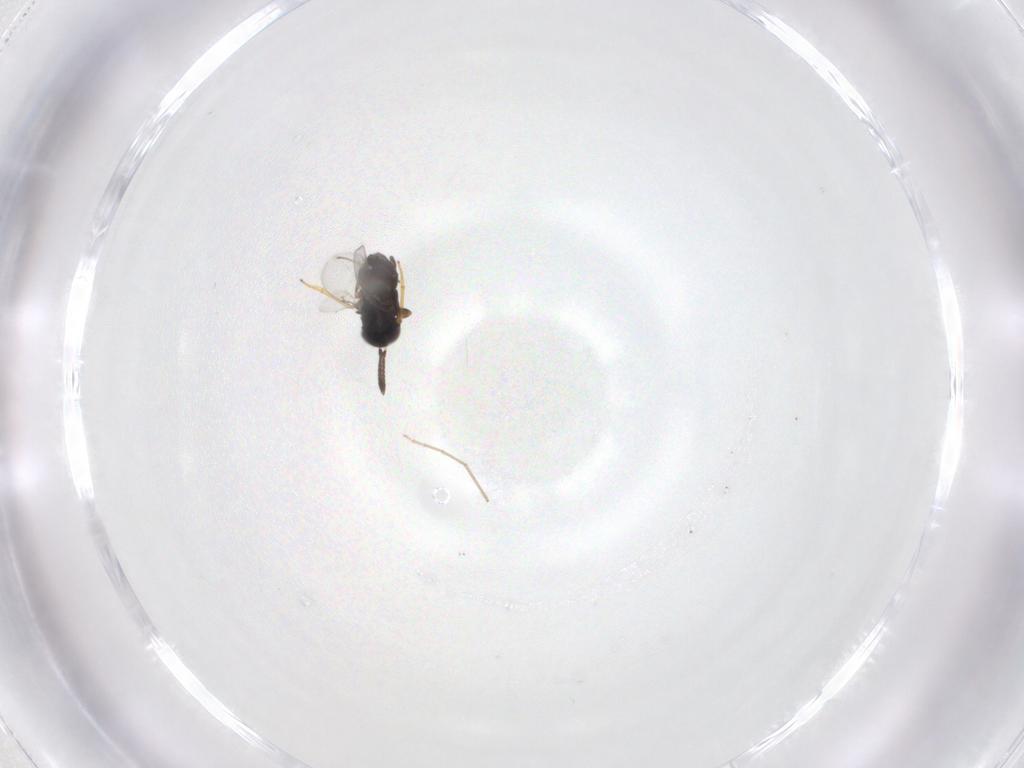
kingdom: Animalia
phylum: Arthropoda
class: Insecta
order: Hymenoptera
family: Encyrtidae
